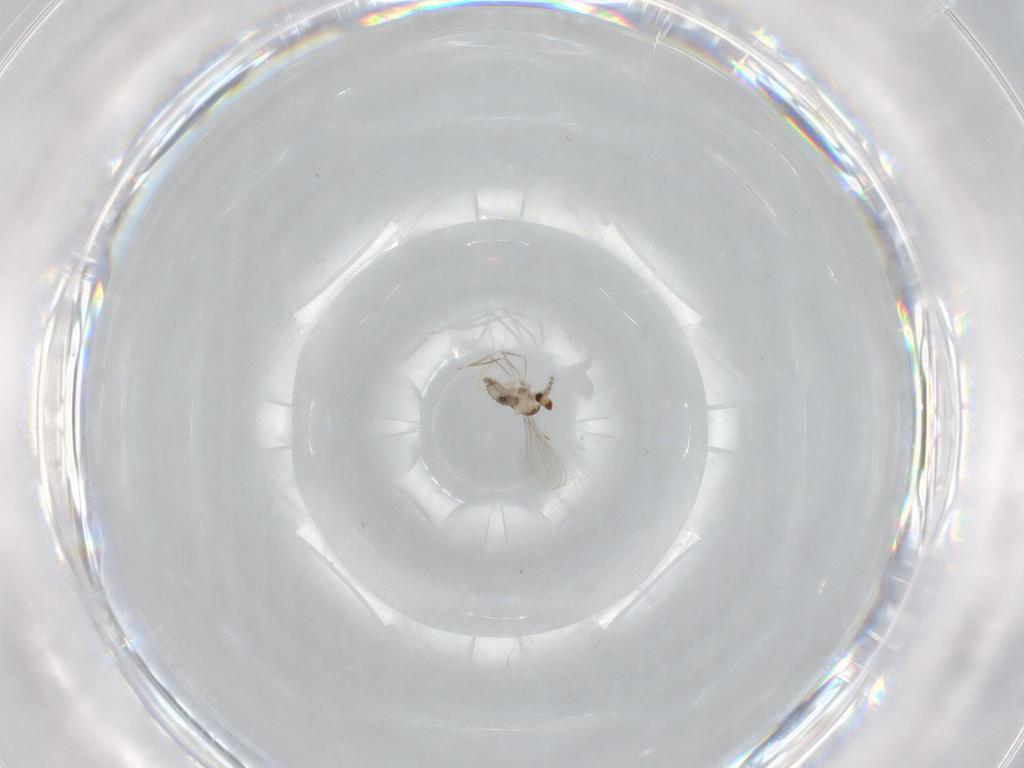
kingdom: Animalia
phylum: Arthropoda
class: Insecta
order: Diptera
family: Cecidomyiidae
